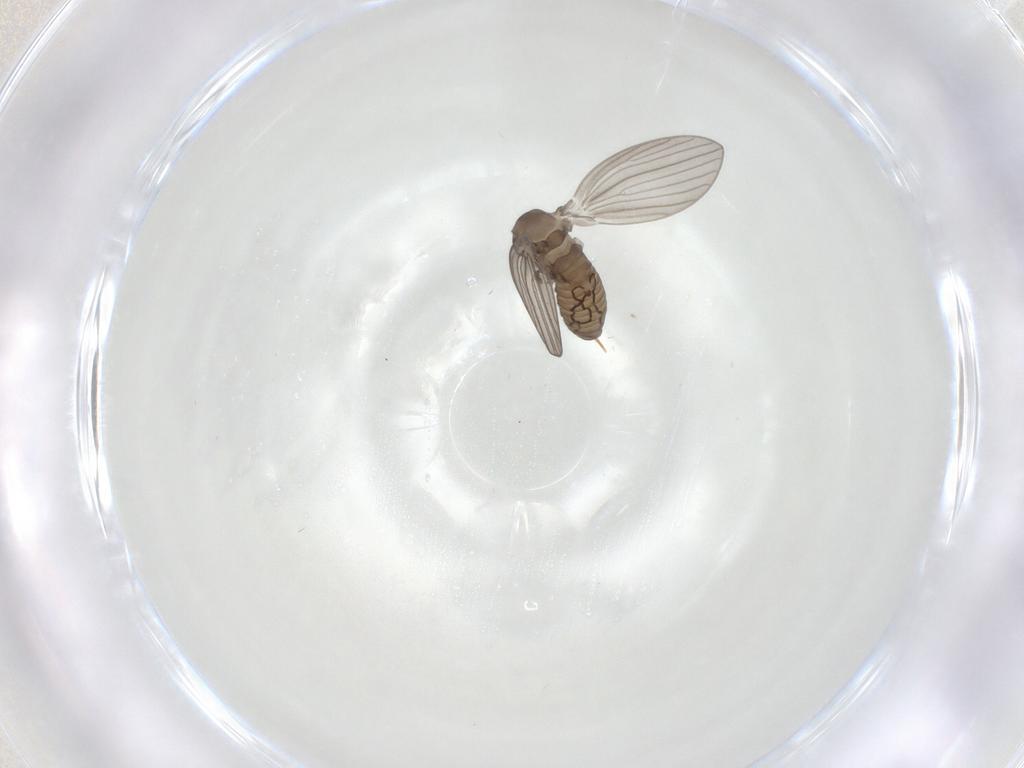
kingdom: Animalia
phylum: Arthropoda
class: Insecta
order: Diptera
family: Psychodidae
